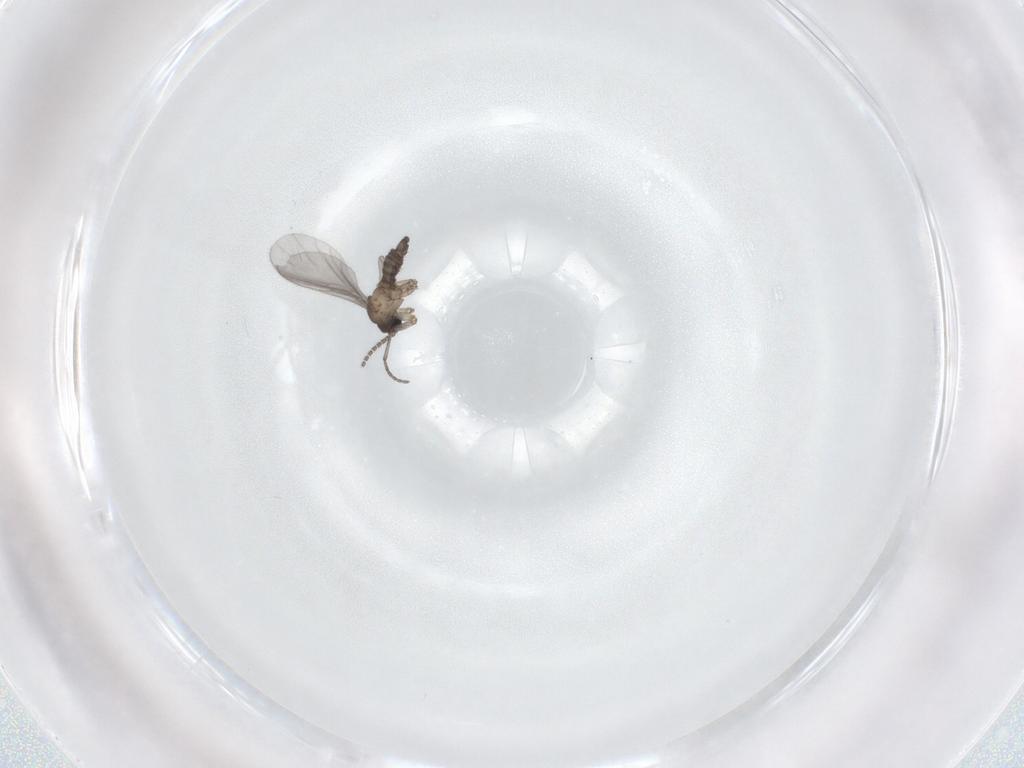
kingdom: Animalia
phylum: Arthropoda
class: Insecta
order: Diptera
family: Sciaridae
